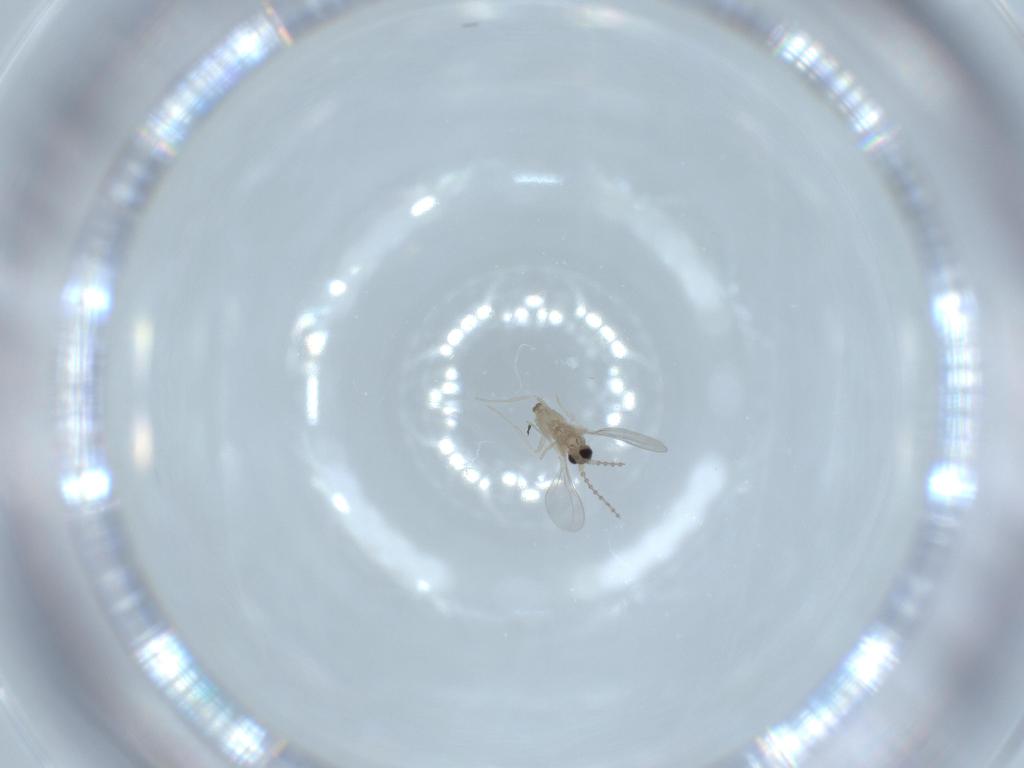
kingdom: Animalia
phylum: Arthropoda
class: Insecta
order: Diptera
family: Cecidomyiidae
